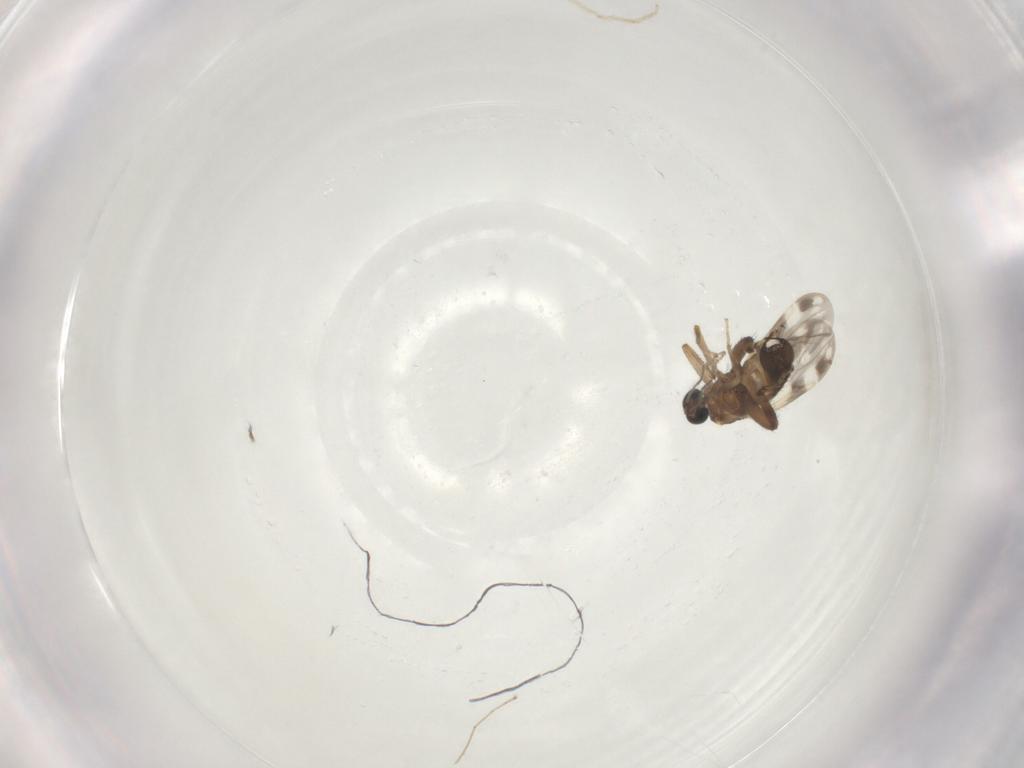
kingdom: Animalia
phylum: Arthropoda
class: Insecta
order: Diptera
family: Ceratopogonidae
